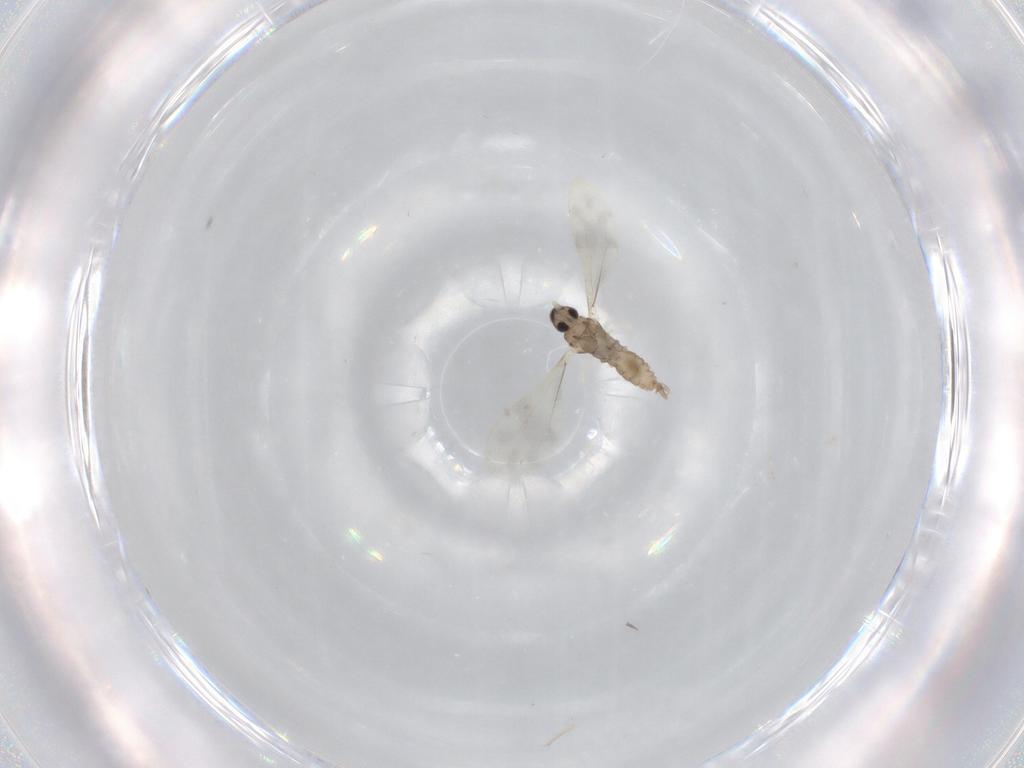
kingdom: Animalia
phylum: Arthropoda
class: Insecta
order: Diptera
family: Cecidomyiidae
